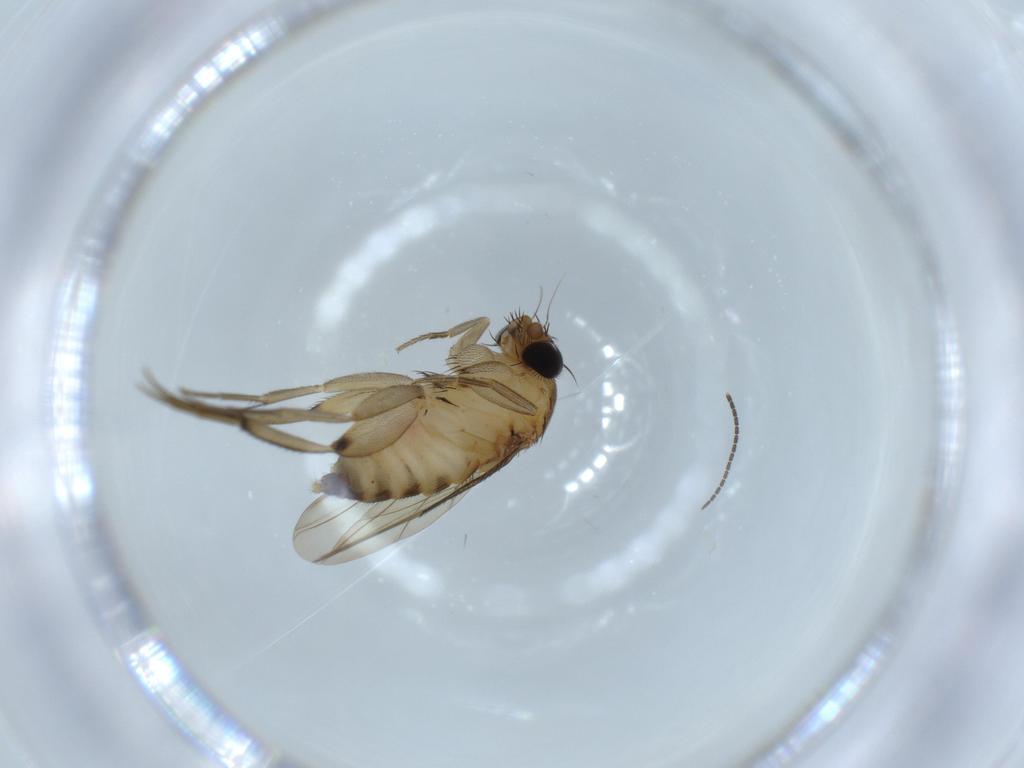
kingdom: Animalia
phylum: Arthropoda
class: Insecta
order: Diptera
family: Phoridae
